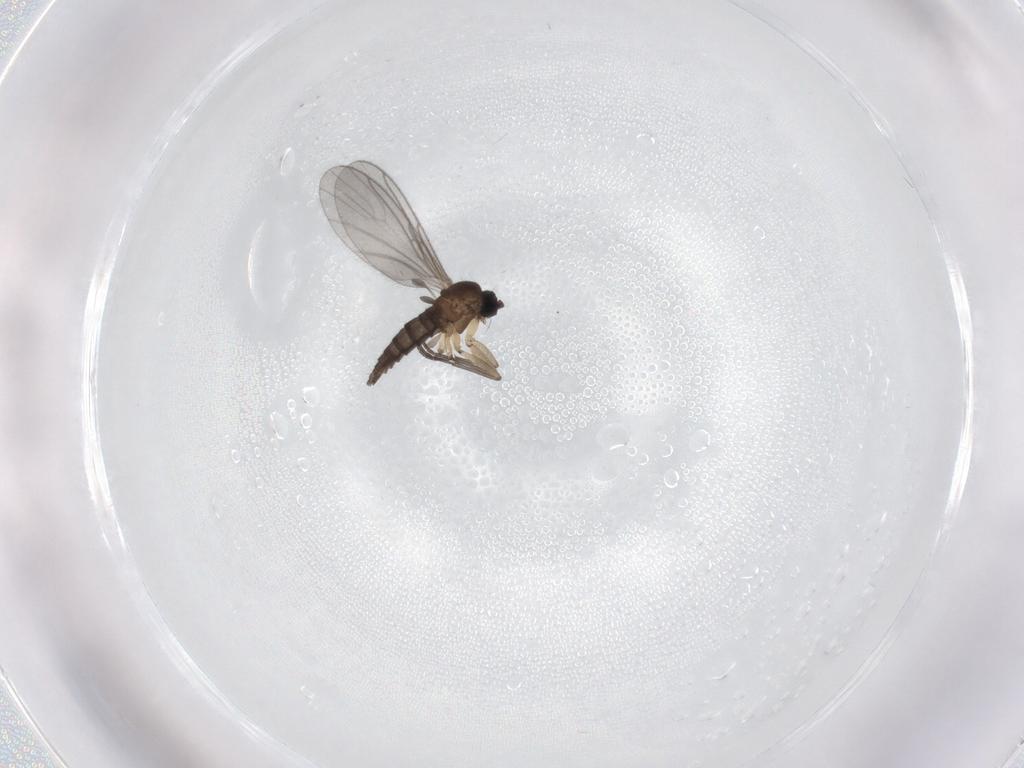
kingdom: Animalia
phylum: Arthropoda
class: Insecta
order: Diptera
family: Sciaridae
